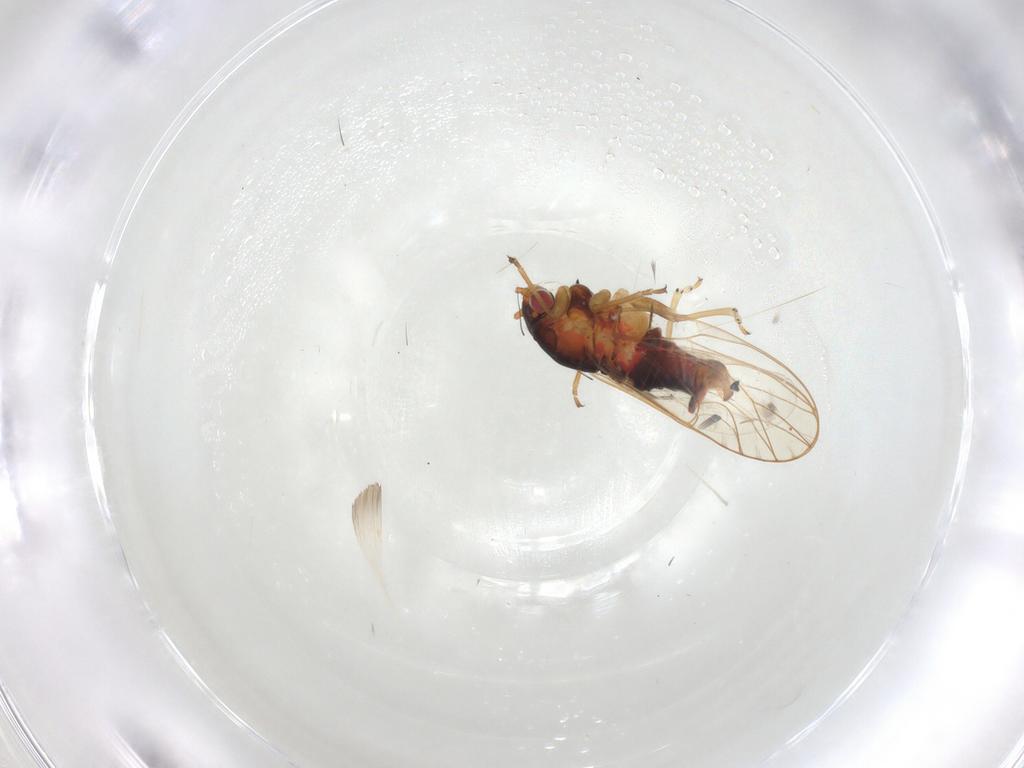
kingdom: Animalia
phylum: Arthropoda
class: Insecta
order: Hemiptera
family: Psyllidae
